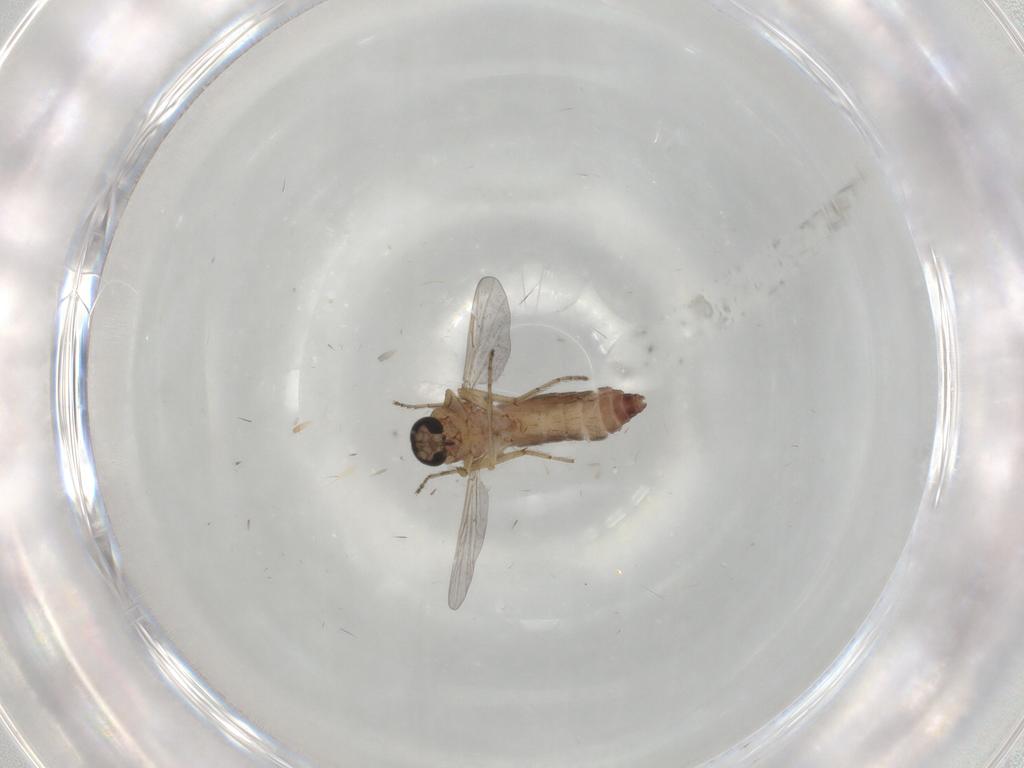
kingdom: Animalia
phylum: Arthropoda
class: Insecta
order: Diptera
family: Ceratopogonidae
